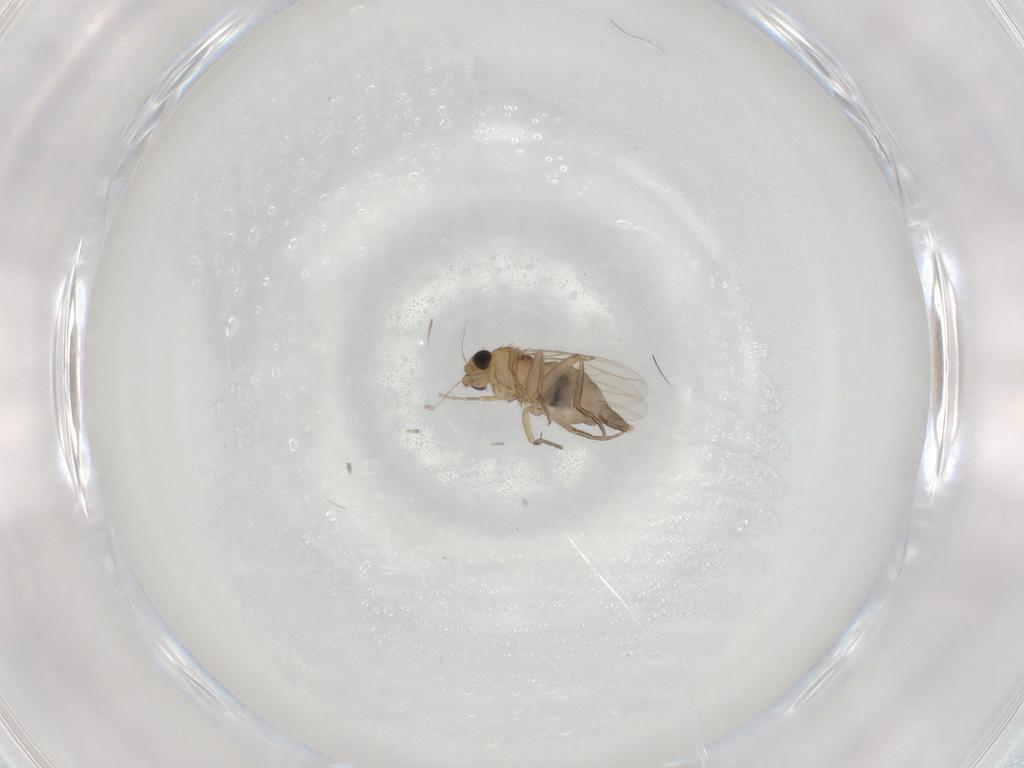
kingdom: Animalia
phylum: Arthropoda
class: Insecta
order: Diptera
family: Phoridae
